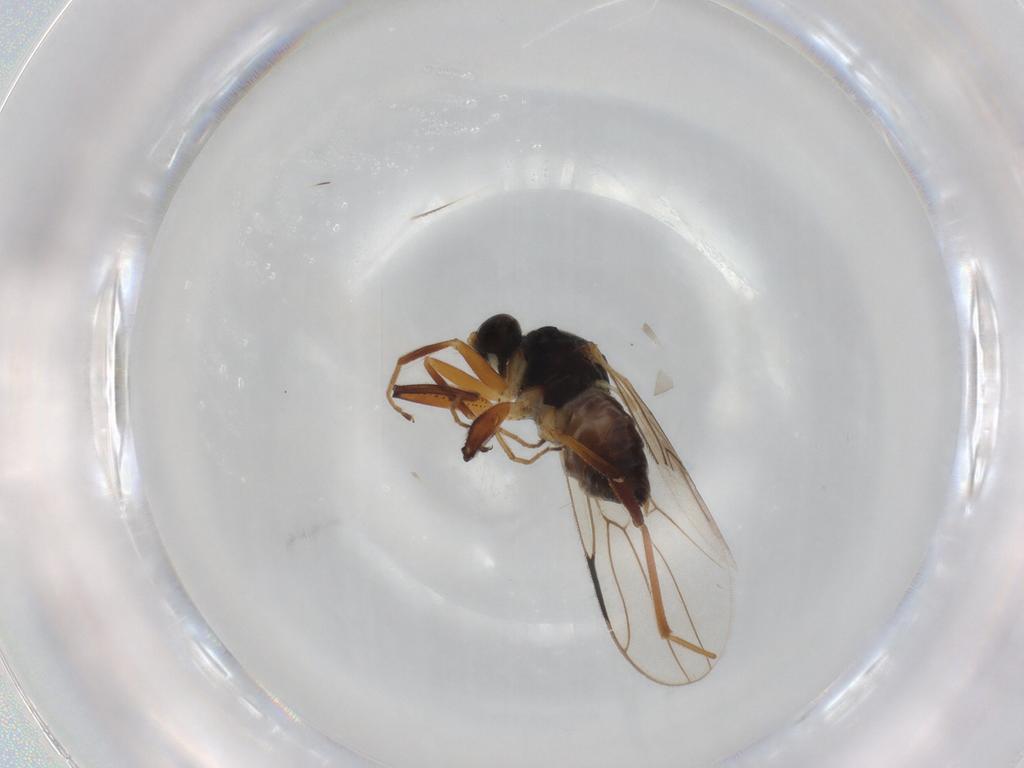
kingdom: Animalia
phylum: Arthropoda
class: Insecta
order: Diptera
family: Hybotidae
